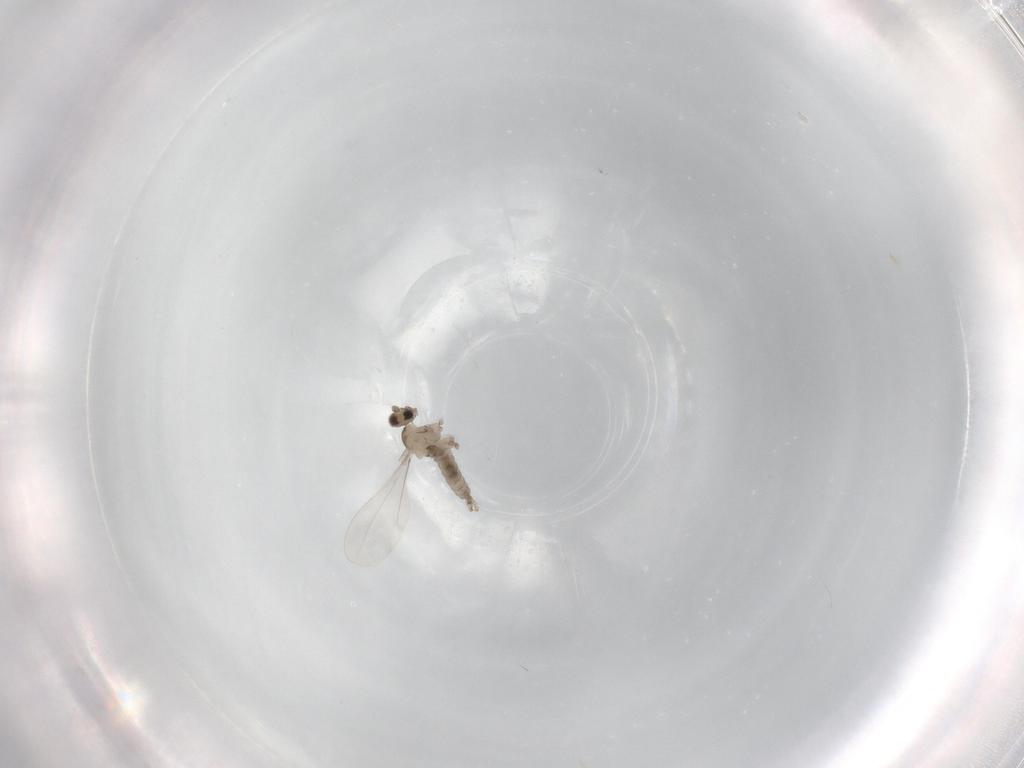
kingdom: Animalia
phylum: Arthropoda
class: Insecta
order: Diptera
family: Cecidomyiidae
